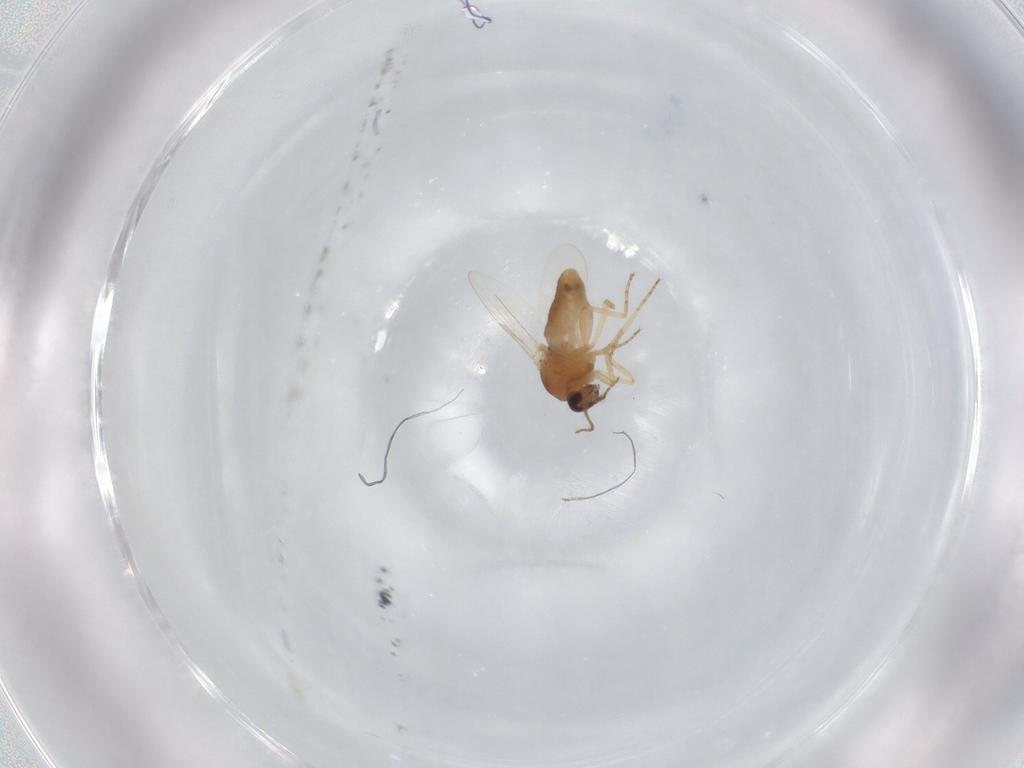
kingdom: Animalia
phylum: Arthropoda
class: Insecta
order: Diptera
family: Ceratopogonidae
